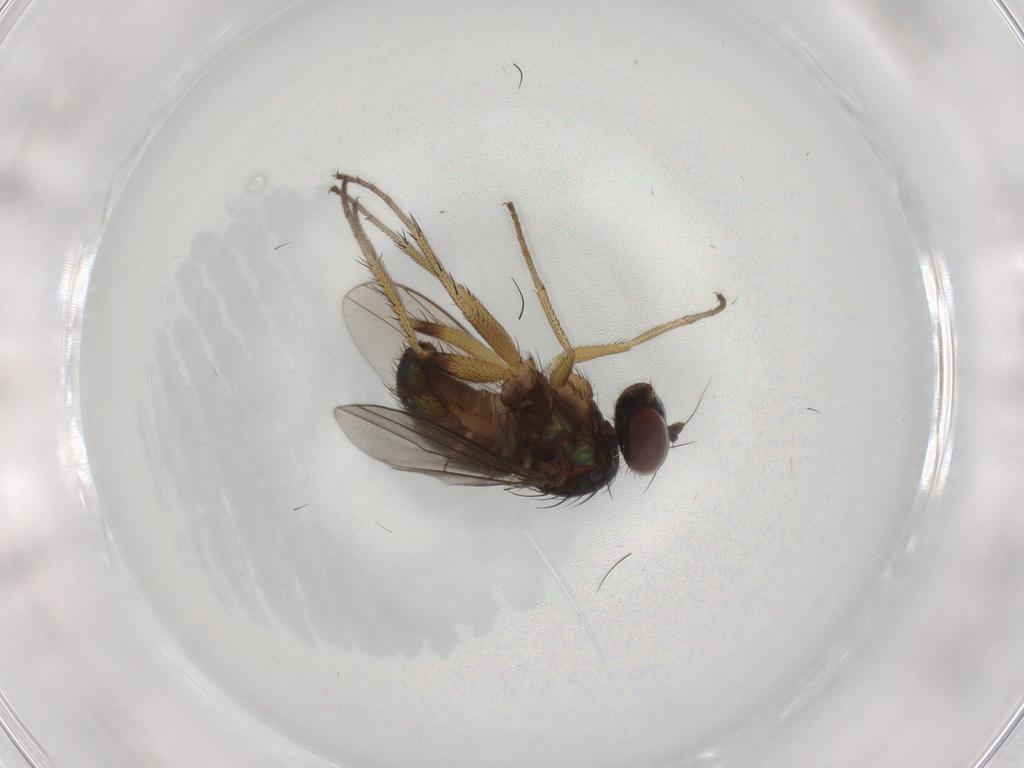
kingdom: Animalia
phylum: Arthropoda
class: Insecta
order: Diptera
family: Dolichopodidae
